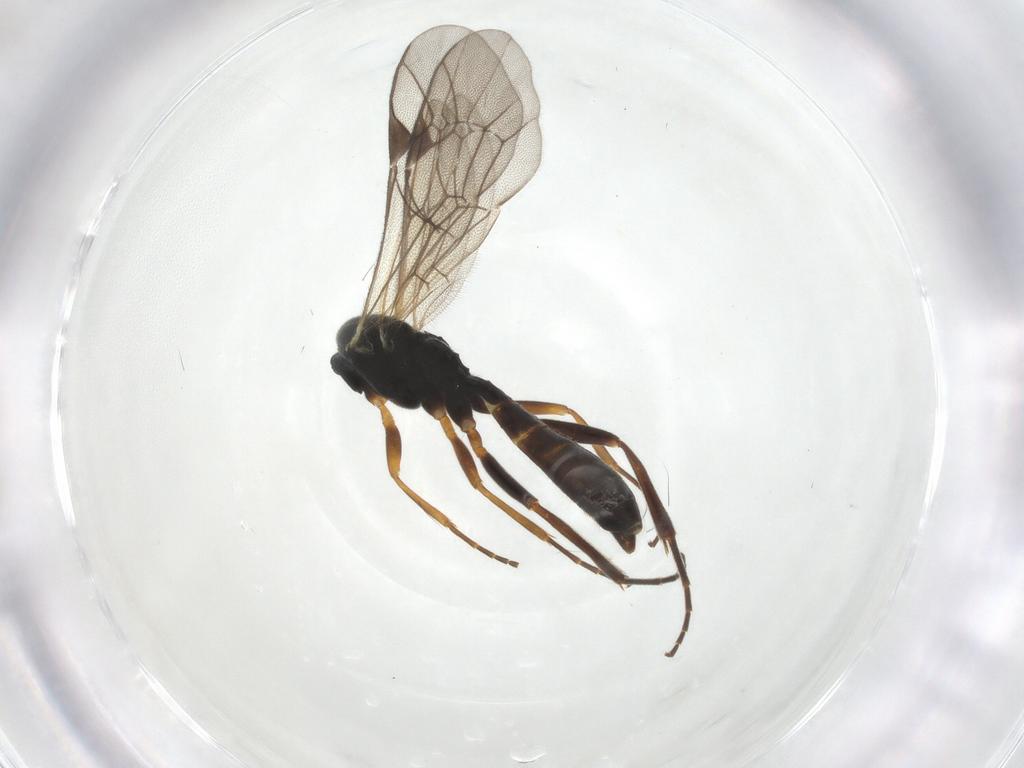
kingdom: Animalia
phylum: Arthropoda
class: Insecta
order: Hymenoptera
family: Ichneumonidae
